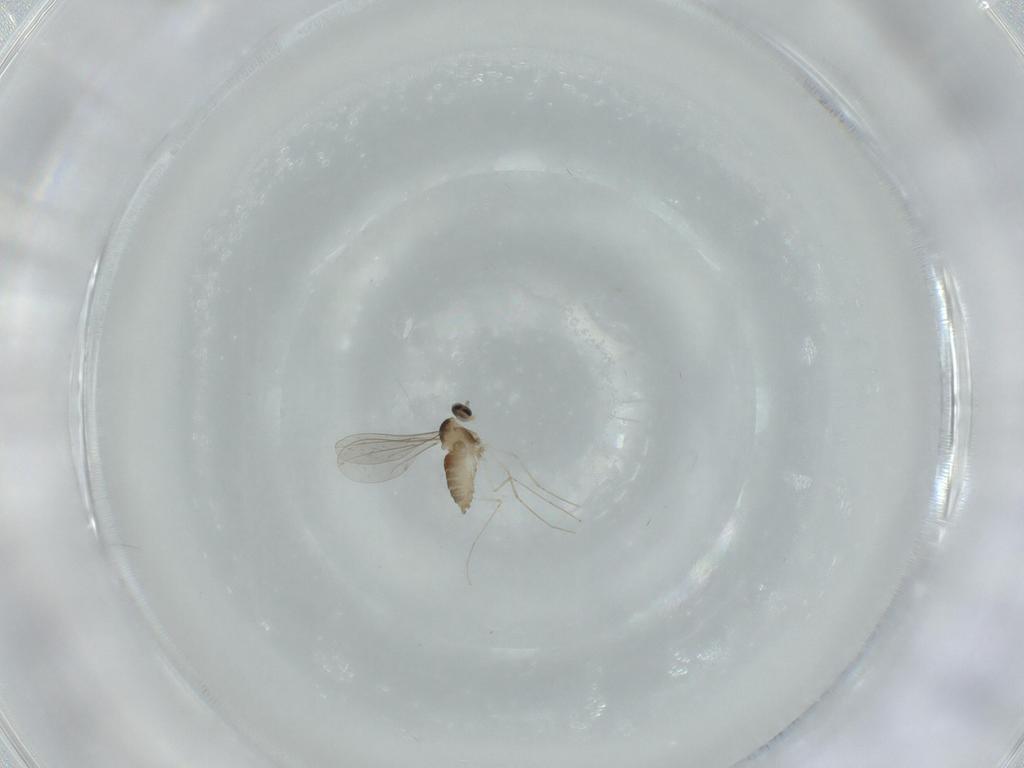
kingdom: Animalia
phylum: Arthropoda
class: Insecta
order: Diptera
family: Cecidomyiidae
